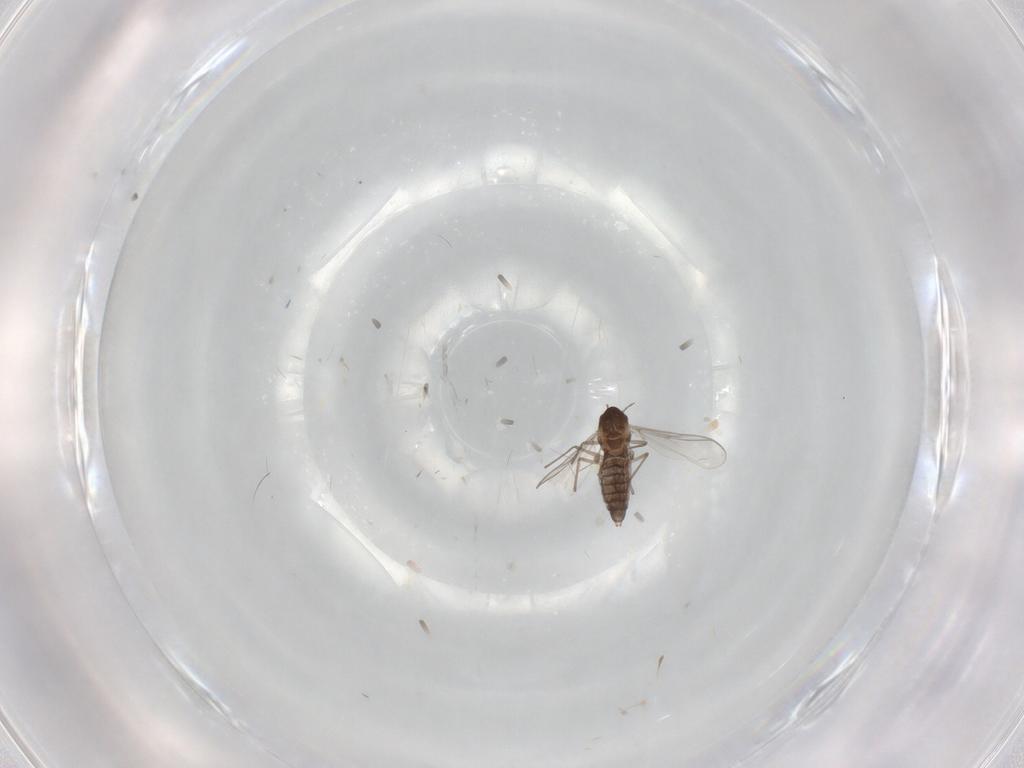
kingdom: Animalia
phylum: Arthropoda
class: Insecta
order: Diptera
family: Chironomidae
